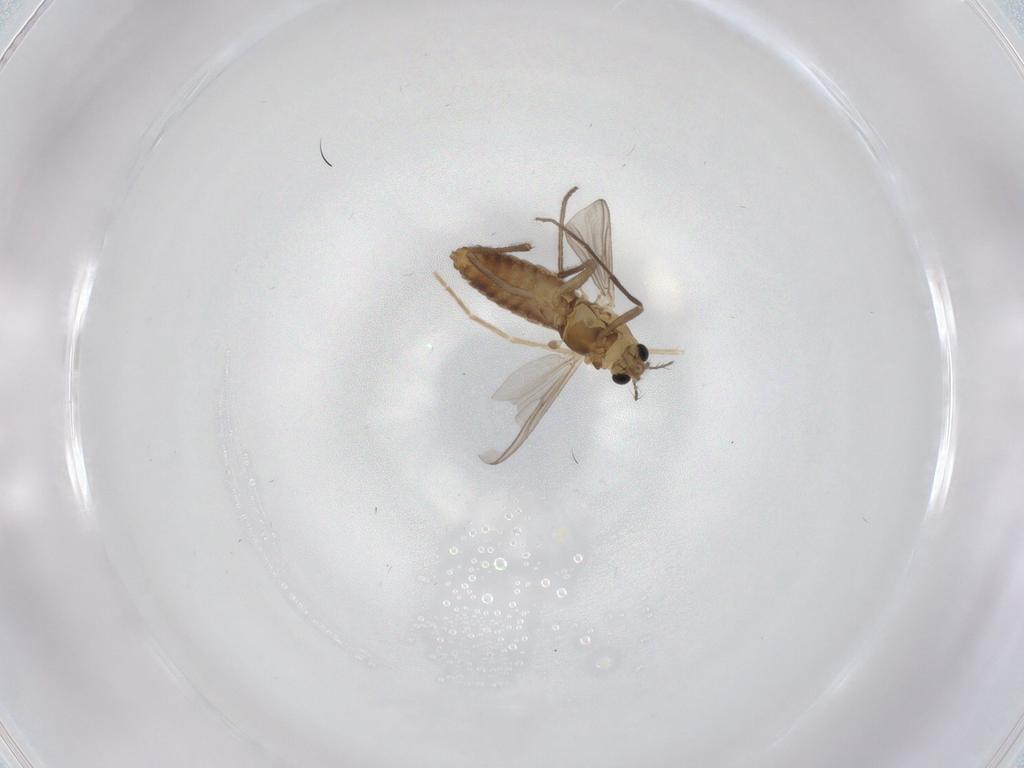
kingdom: Animalia
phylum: Arthropoda
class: Insecta
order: Diptera
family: Chironomidae
